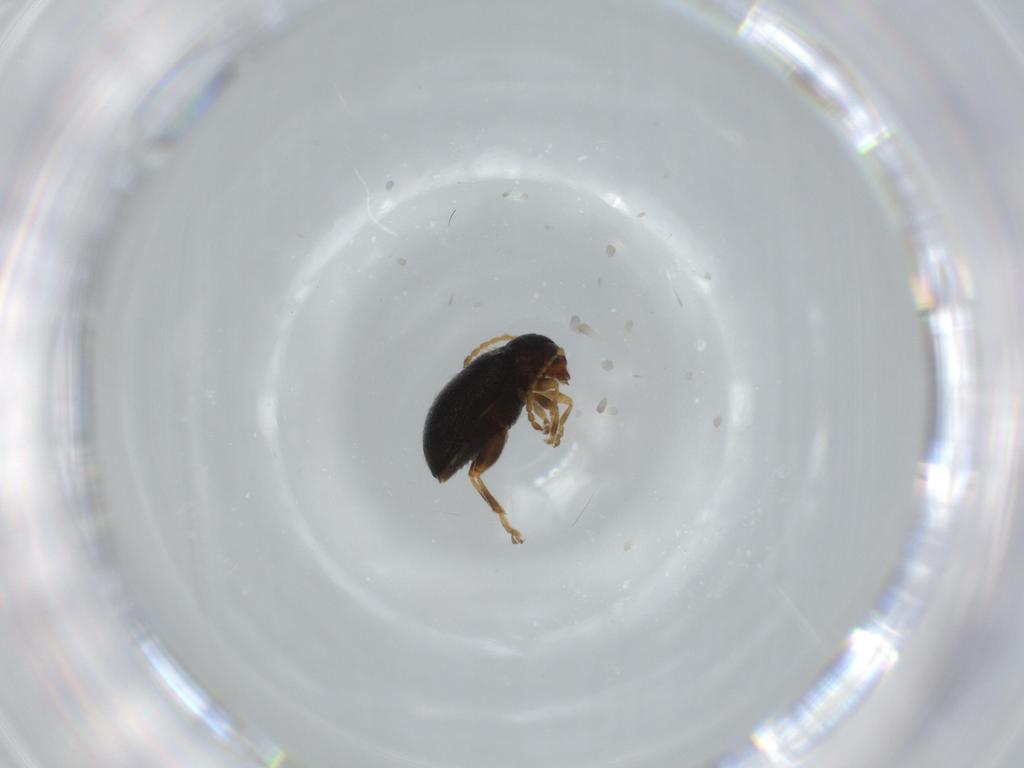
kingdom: Animalia
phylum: Arthropoda
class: Insecta
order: Coleoptera
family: Chrysomelidae
